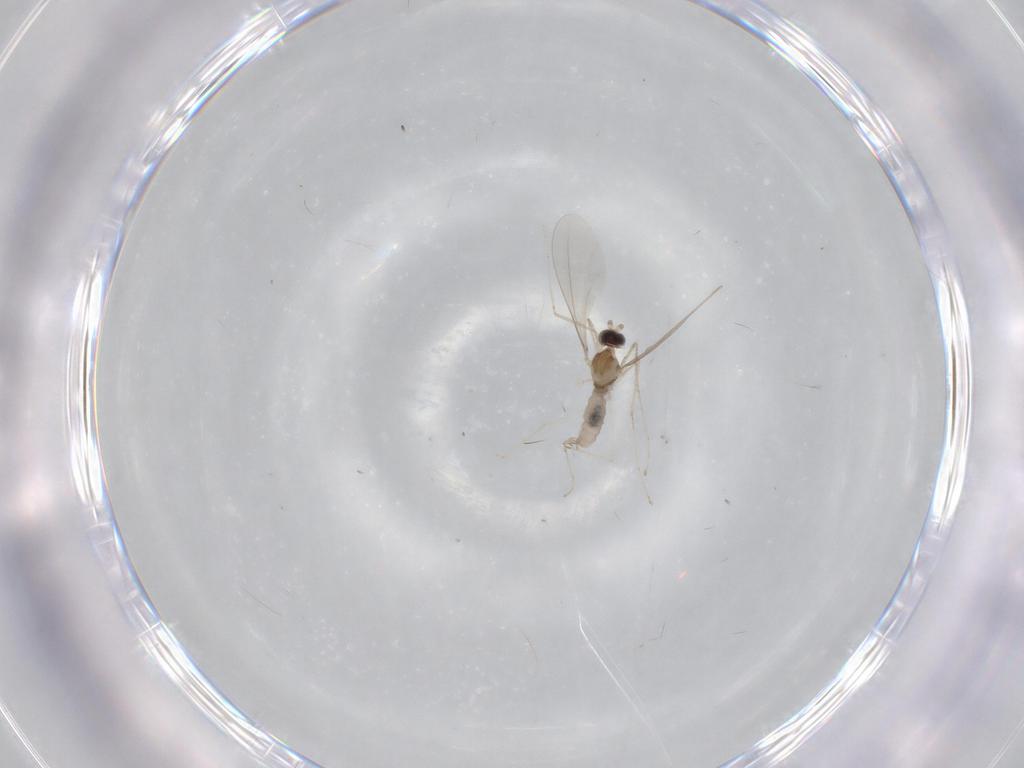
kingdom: Animalia
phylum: Arthropoda
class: Insecta
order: Diptera
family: Cecidomyiidae
